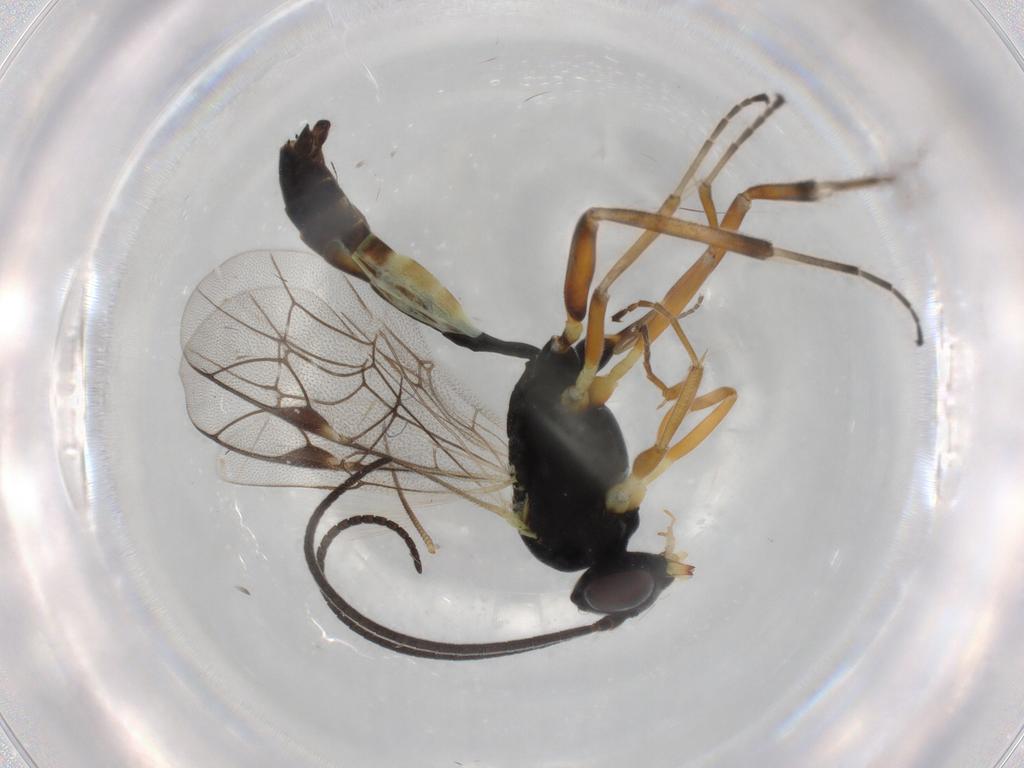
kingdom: Animalia
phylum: Arthropoda
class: Insecta
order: Hymenoptera
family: Ichneumonidae
